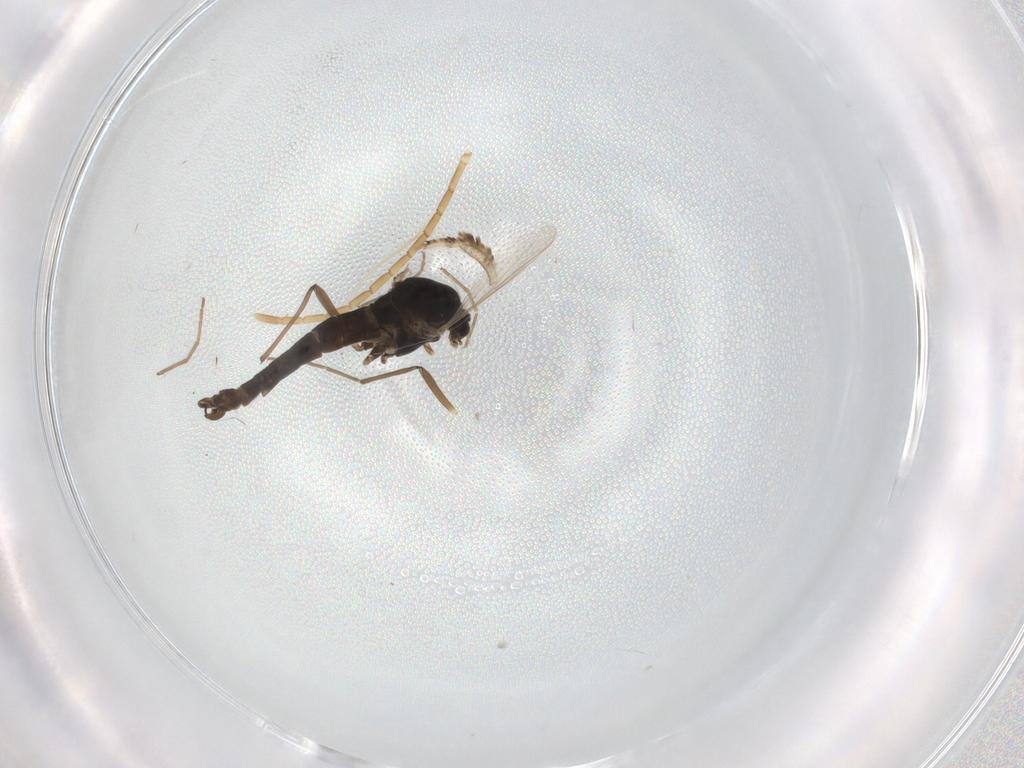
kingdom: Animalia
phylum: Arthropoda
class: Insecta
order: Diptera
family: Chironomidae
